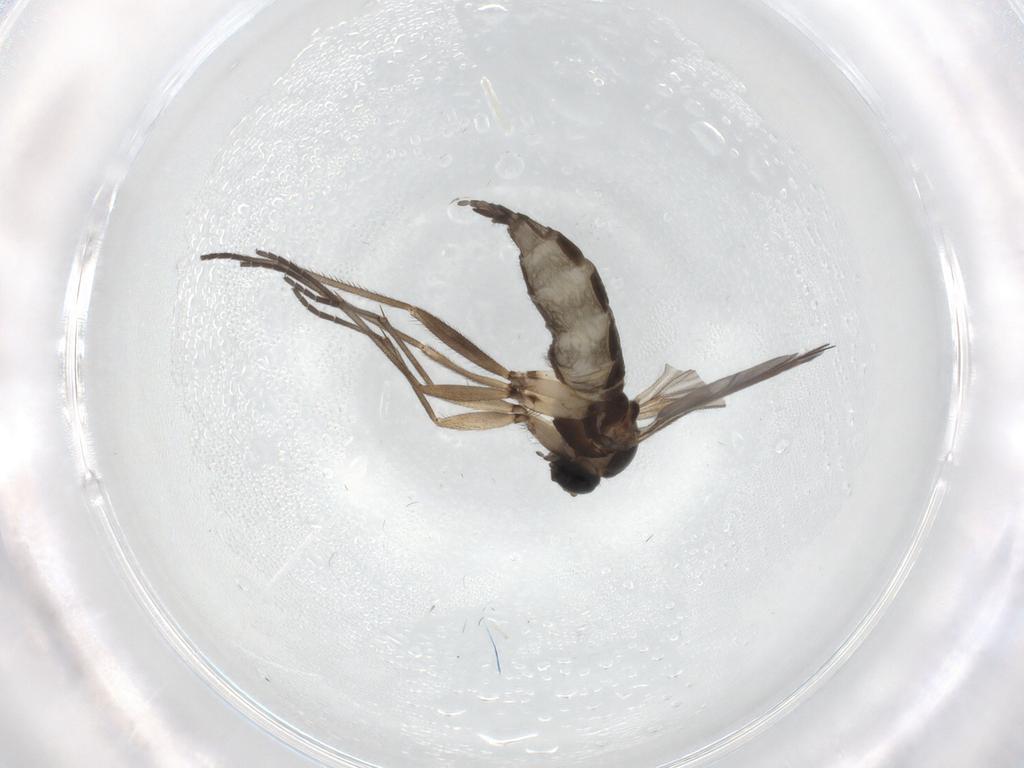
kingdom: Animalia
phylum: Arthropoda
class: Insecta
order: Diptera
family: Sciaridae
